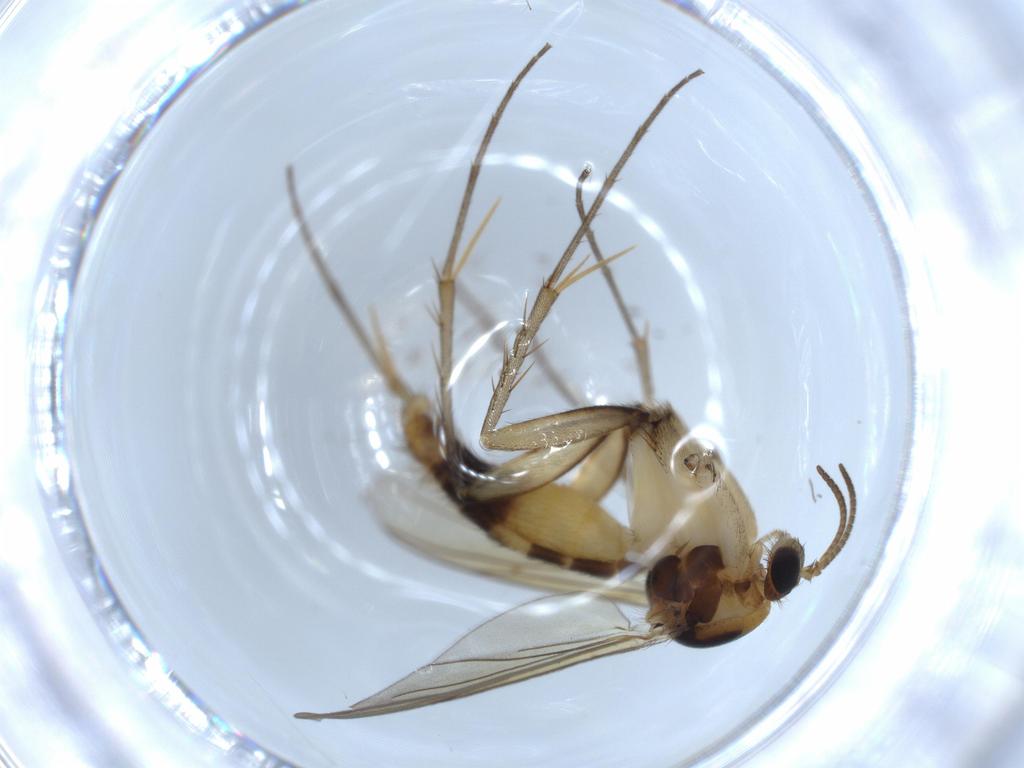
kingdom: Animalia
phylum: Arthropoda
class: Insecta
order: Diptera
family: Mycetophilidae
